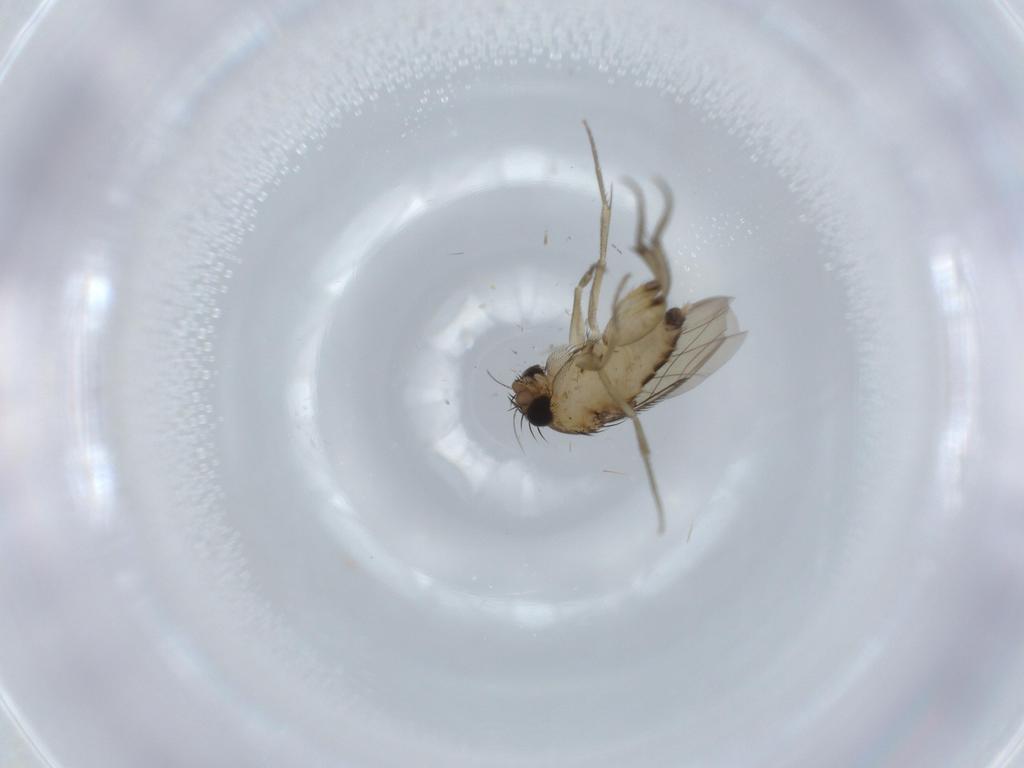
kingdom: Animalia
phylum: Arthropoda
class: Insecta
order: Diptera
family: Phoridae
